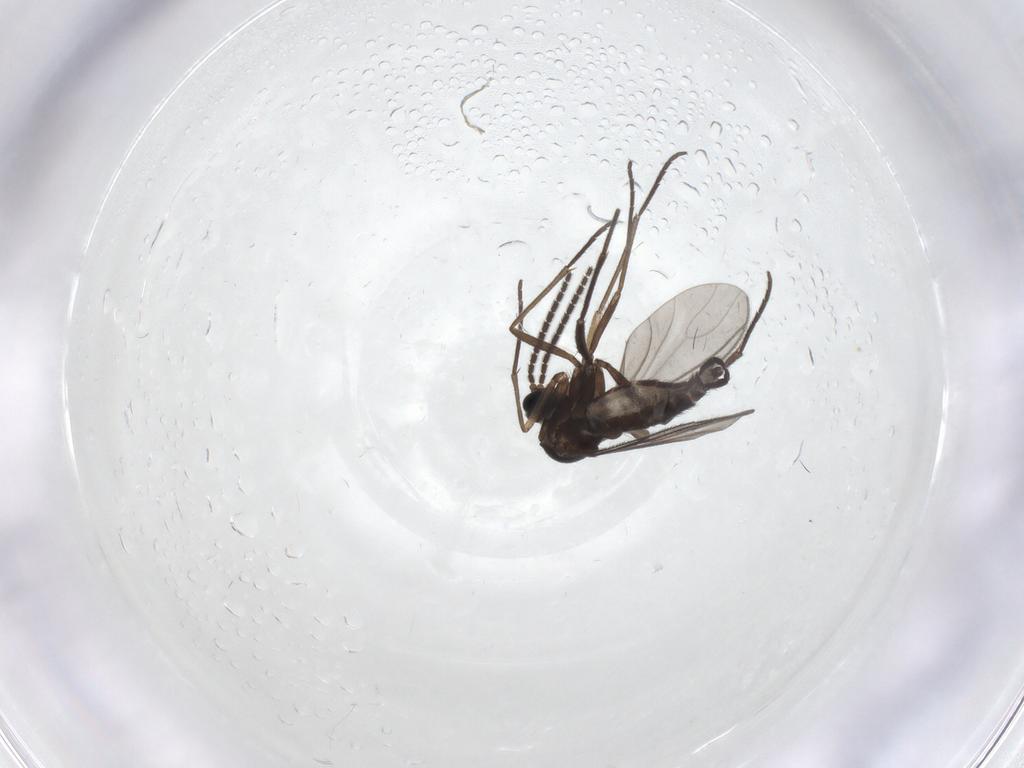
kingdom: Animalia
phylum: Arthropoda
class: Insecta
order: Diptera
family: Sciaridae
